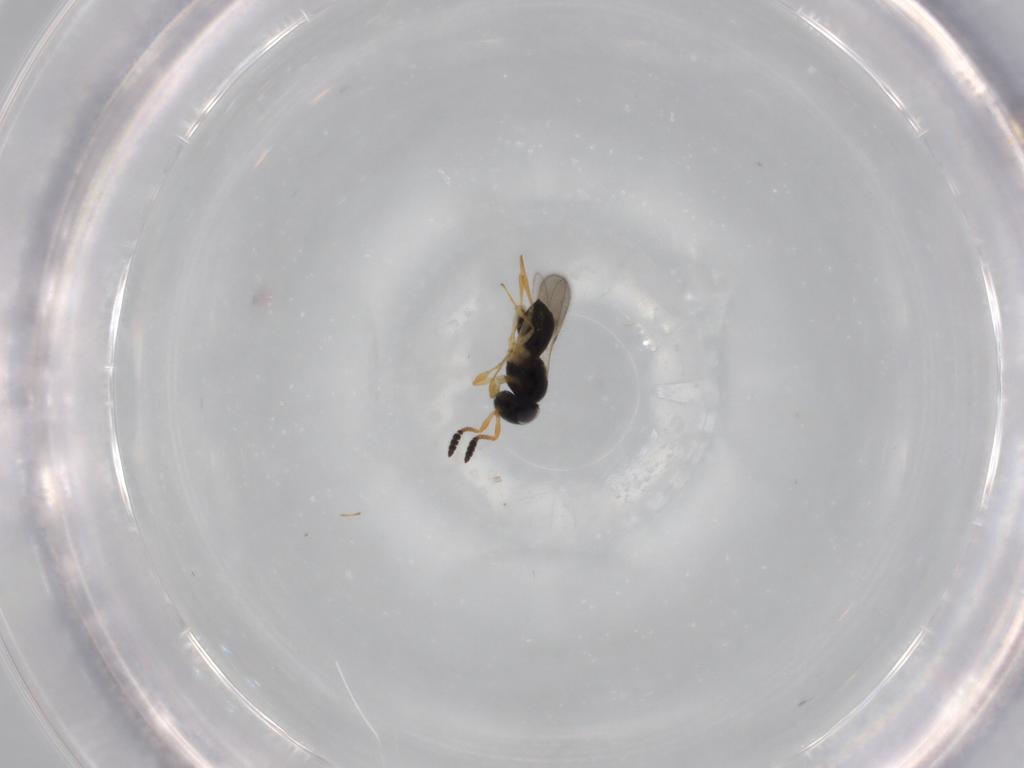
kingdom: Animalia
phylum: Arthropoda
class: Insecta
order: Hymenoptera
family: Scelionidae
